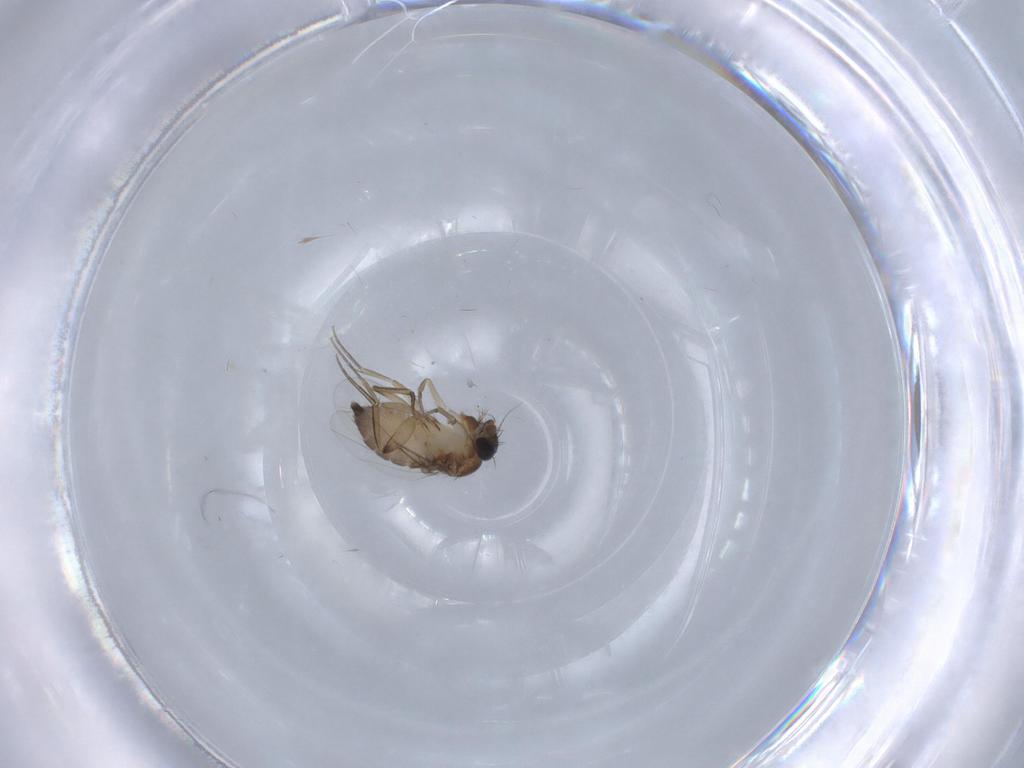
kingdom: Animalia
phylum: Arthropoda
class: Insecta
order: Diptera
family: Phoridae
